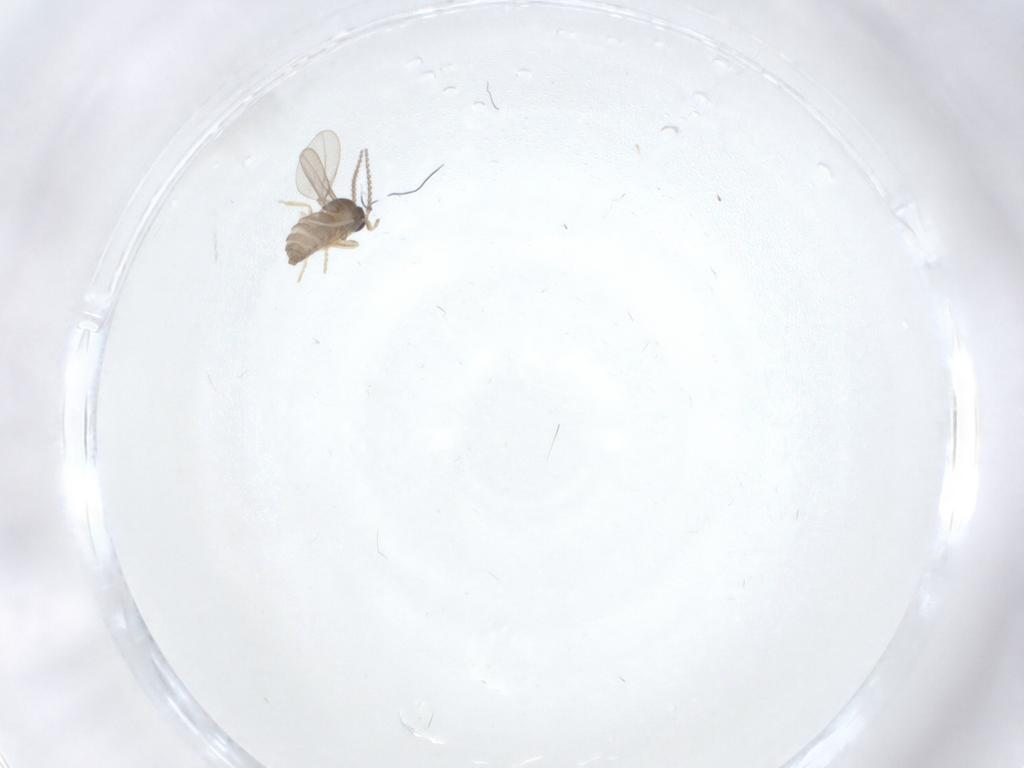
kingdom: Animalia
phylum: Arthropoda
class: Insecta
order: Diptera
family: Cecidomyiidae
